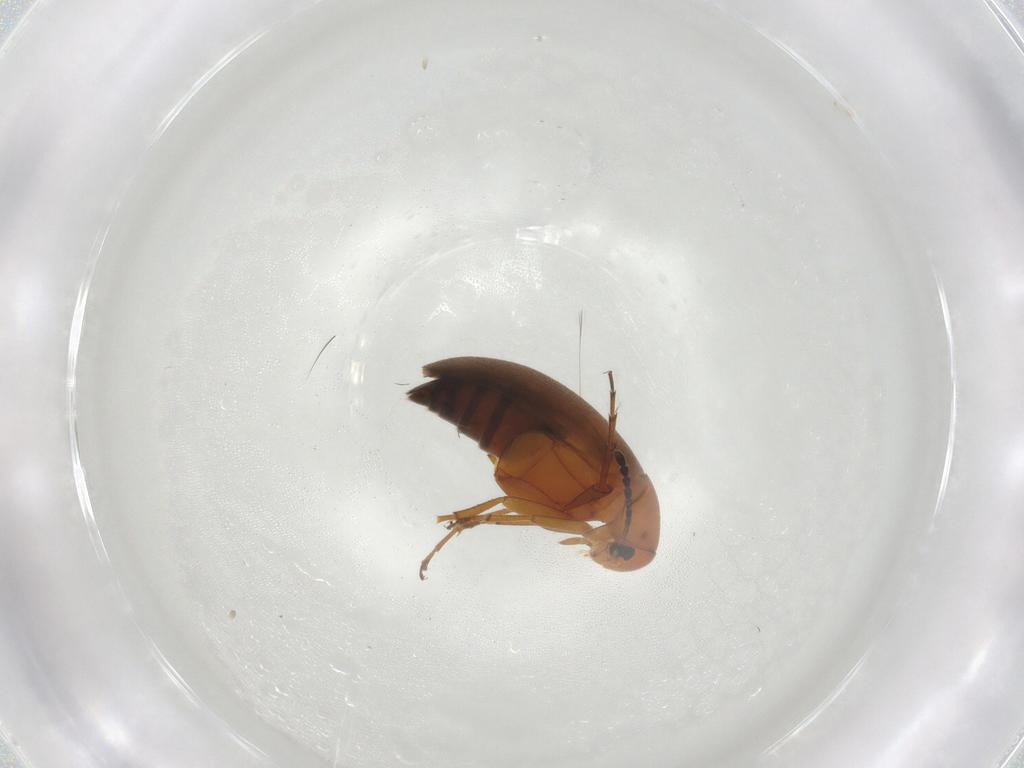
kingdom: Animalia
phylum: Arthropoda
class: Insecta
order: Coleoptera
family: Scraptiidae
